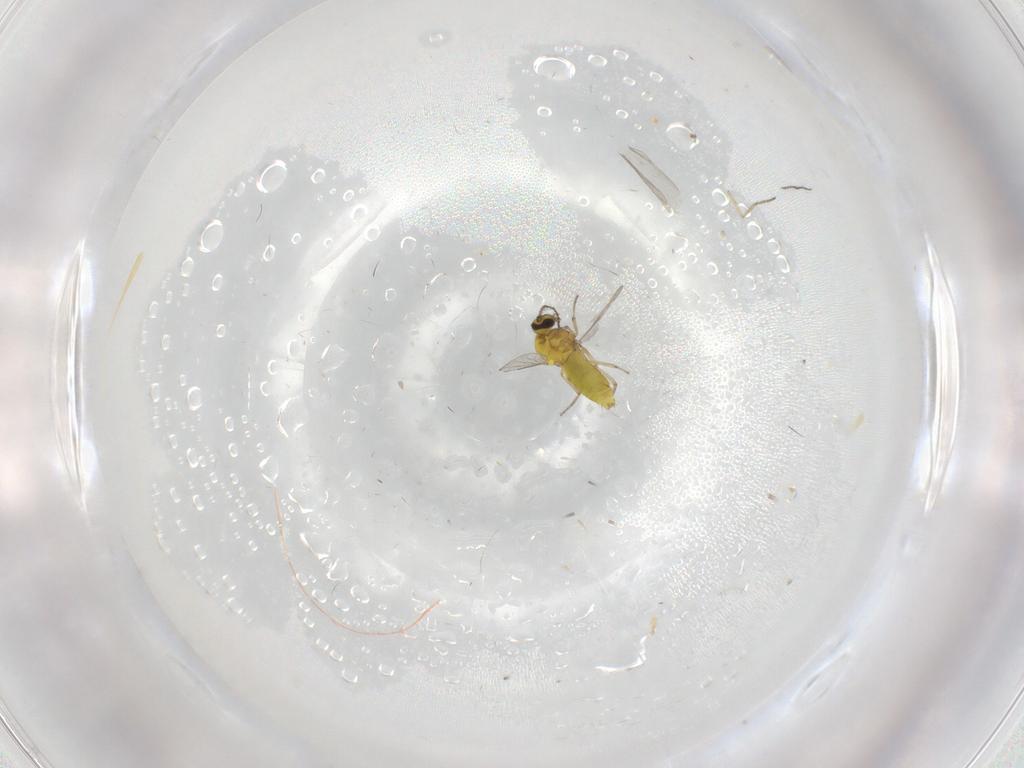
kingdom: Animalia
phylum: Arthropoda
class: Insecta
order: Diptera
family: Ceratopogonidae
